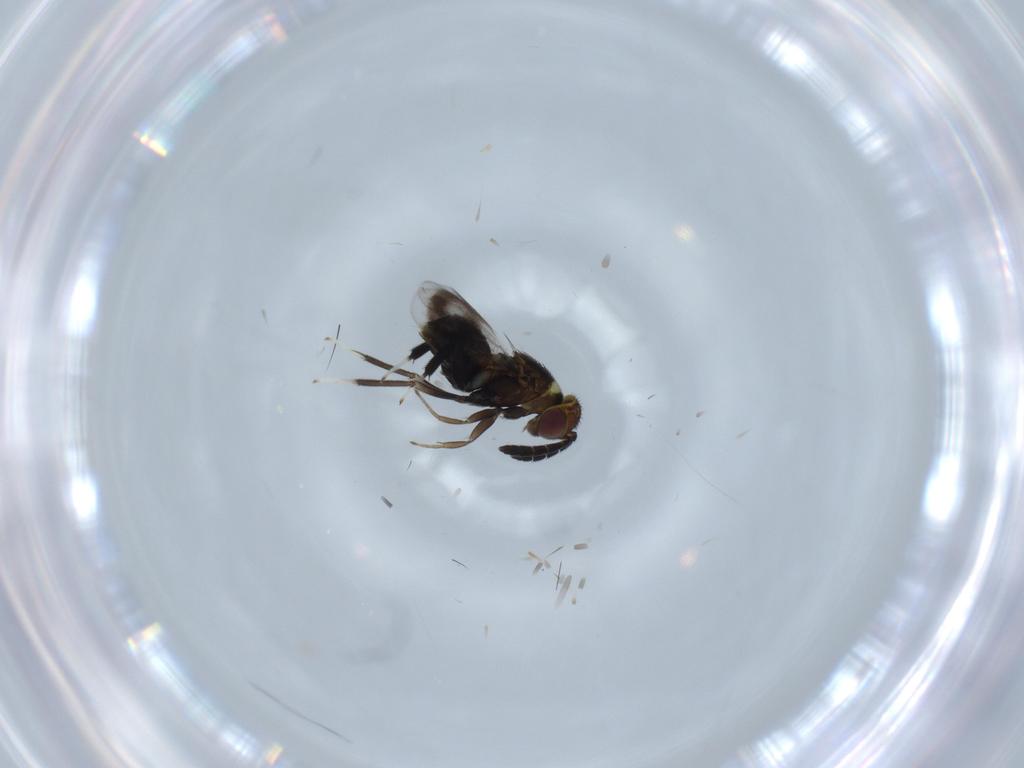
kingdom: Animalia
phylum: Arthropoda
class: Insecta
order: Hymenoptera
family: Aphelinidae
